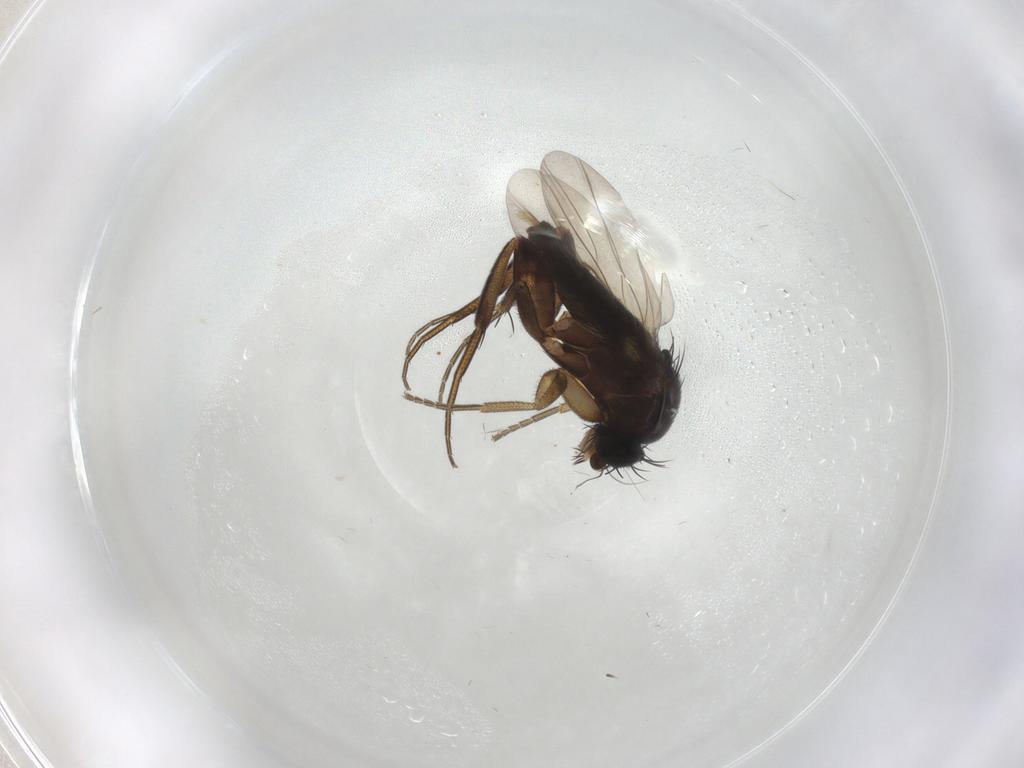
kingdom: Animalia
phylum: Arthropoda
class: Insecta
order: Diptera
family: Phoridae
